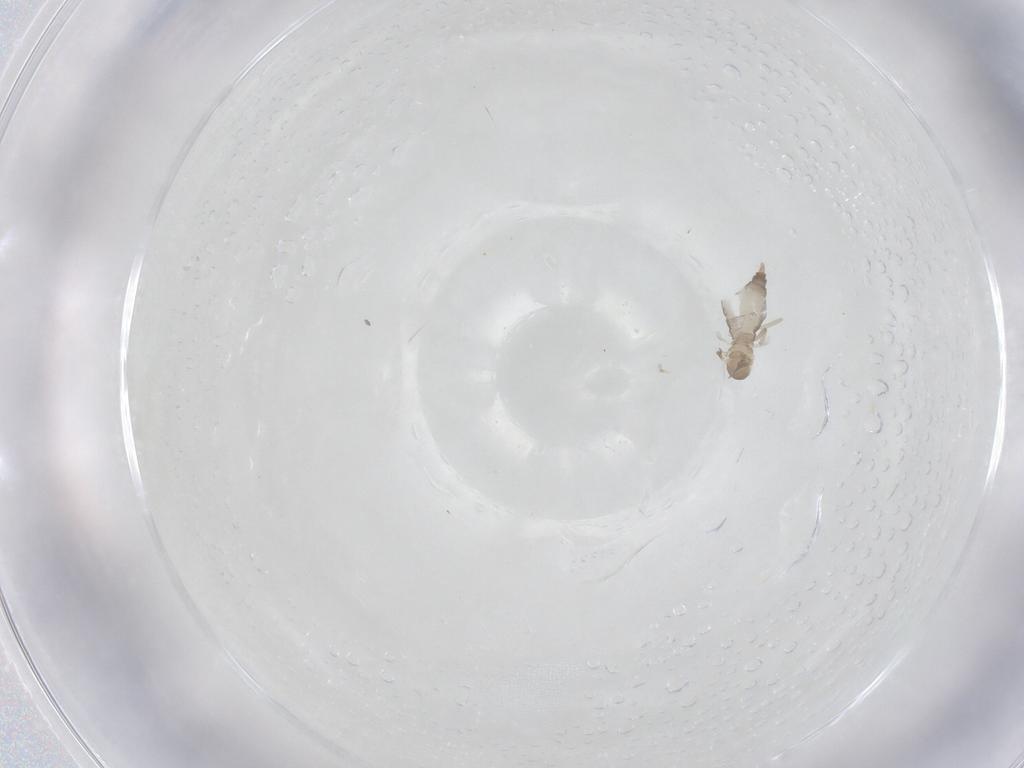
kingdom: Animalia
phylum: Arthropoda
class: Insecta
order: Diptera
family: Cecidomyiidae
